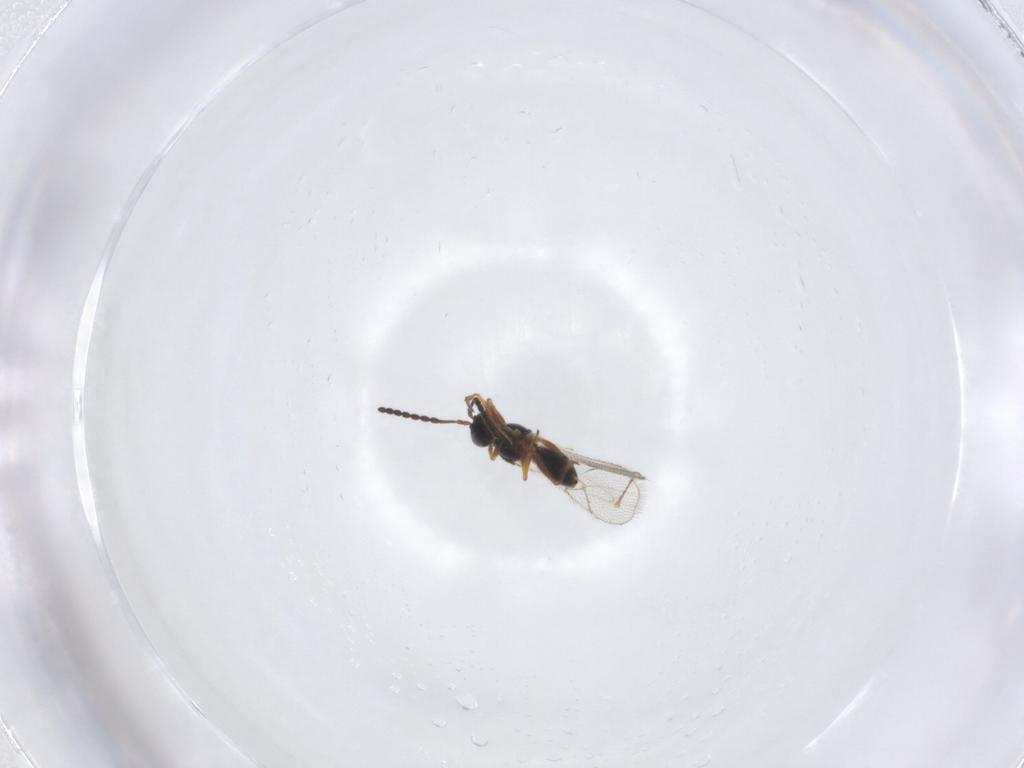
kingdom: Animalia
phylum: Arthropoda
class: Insecta
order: Hymenoptera
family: Figitidae
